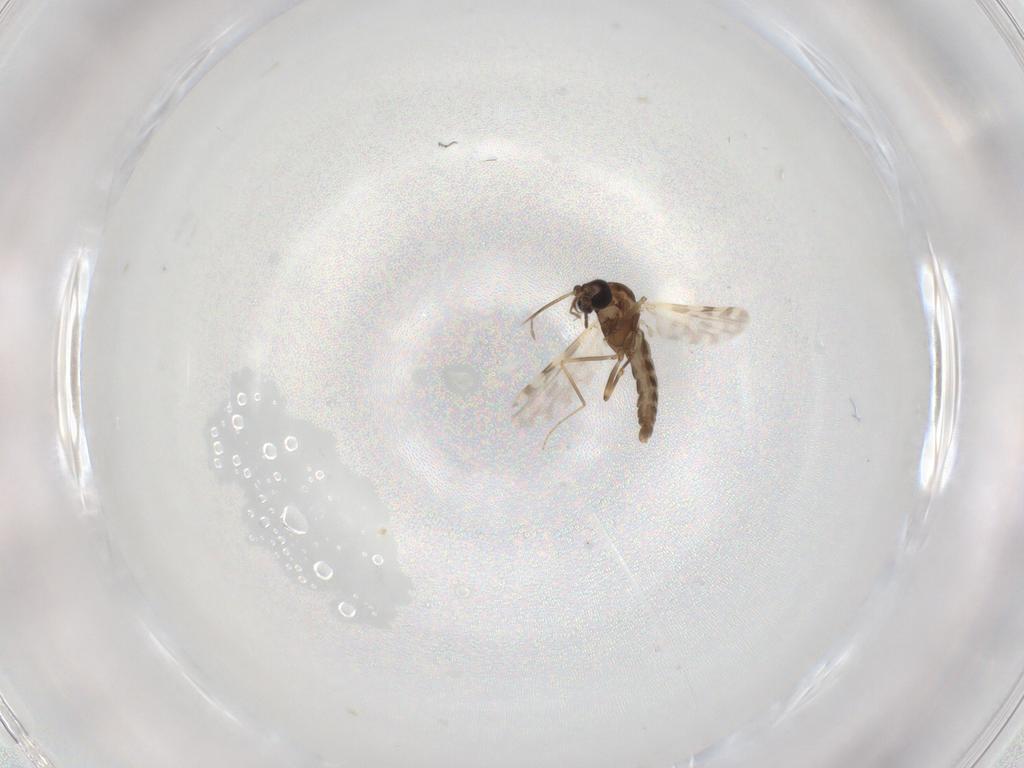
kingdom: Animalia
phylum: Arthropoda
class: Insecta
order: Diptera
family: Ceratopogonidae
